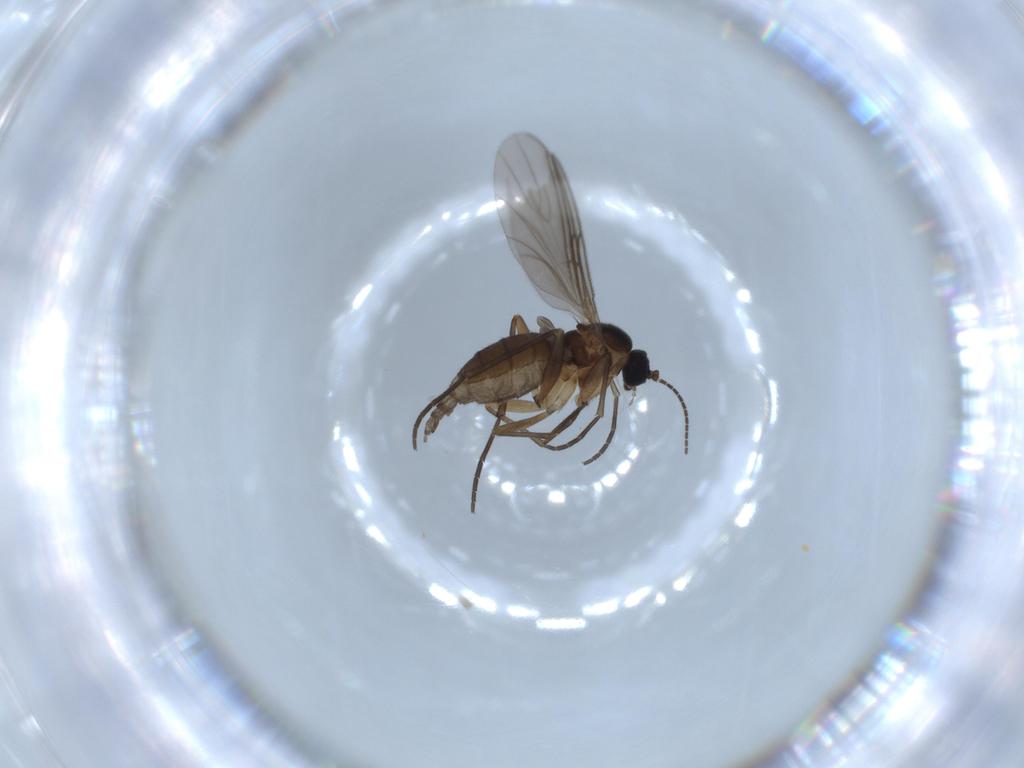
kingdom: Animalia
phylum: Arthropoda
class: Insecta
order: Diptera
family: Sciaridae
